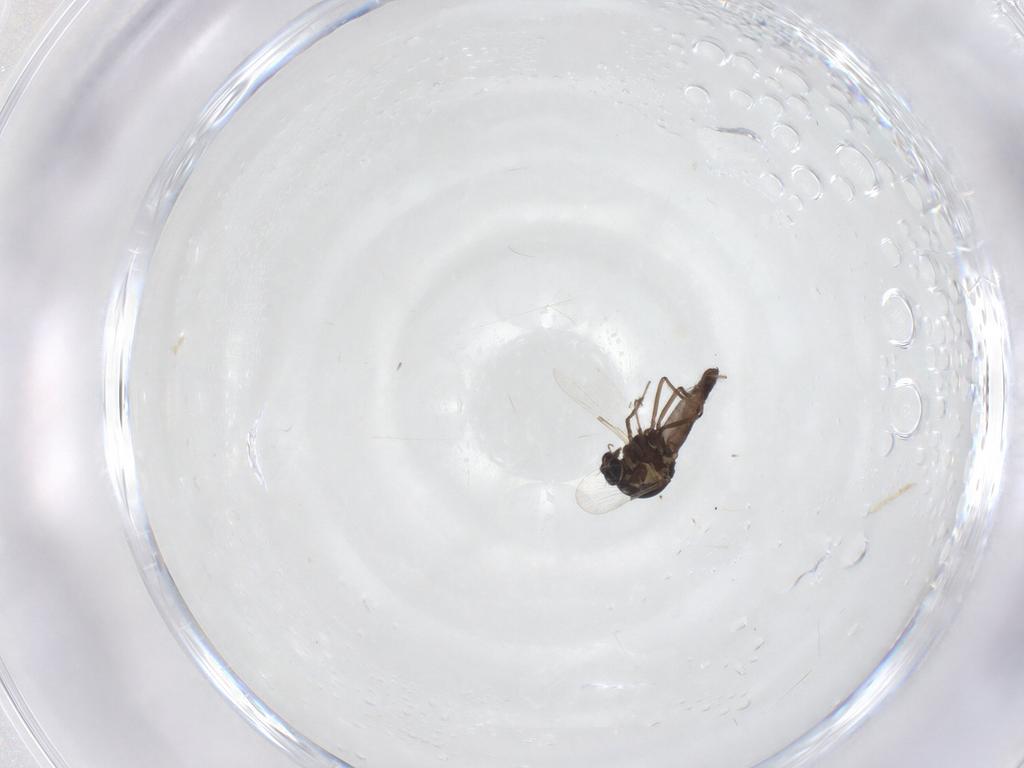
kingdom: Animalia
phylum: Arthropoda
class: Insecta
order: Diptera
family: Ceratopogonidae
